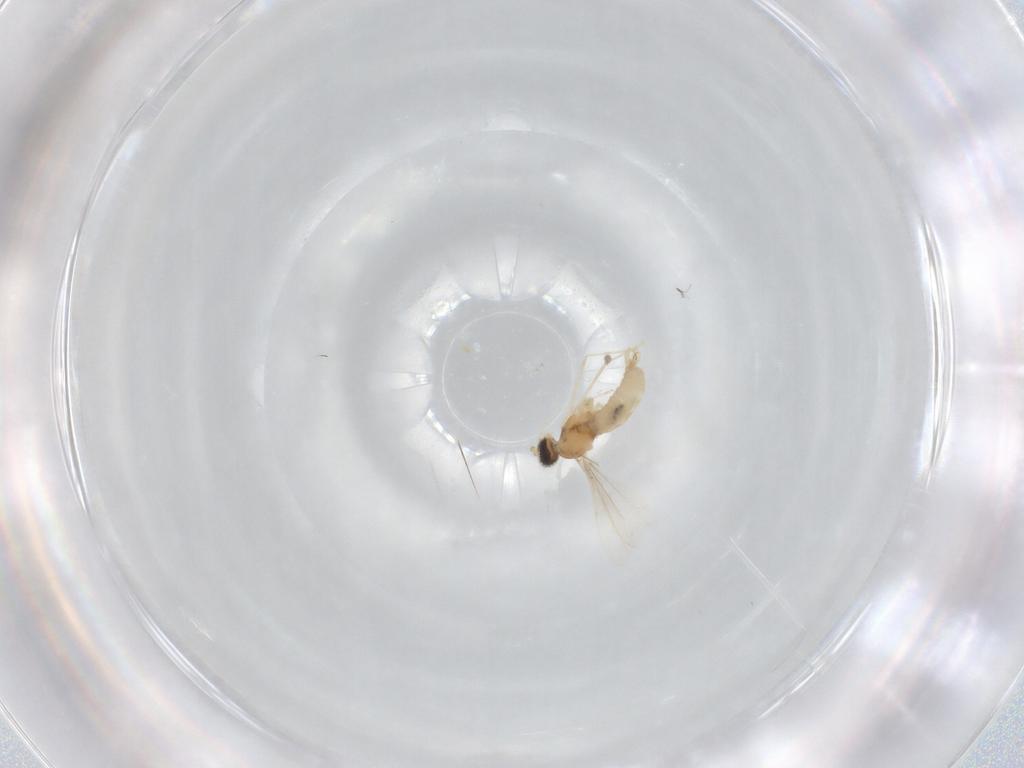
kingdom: Animalia
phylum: Arthropoda
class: Insecta
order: Diptera
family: Cecidomyiidae
